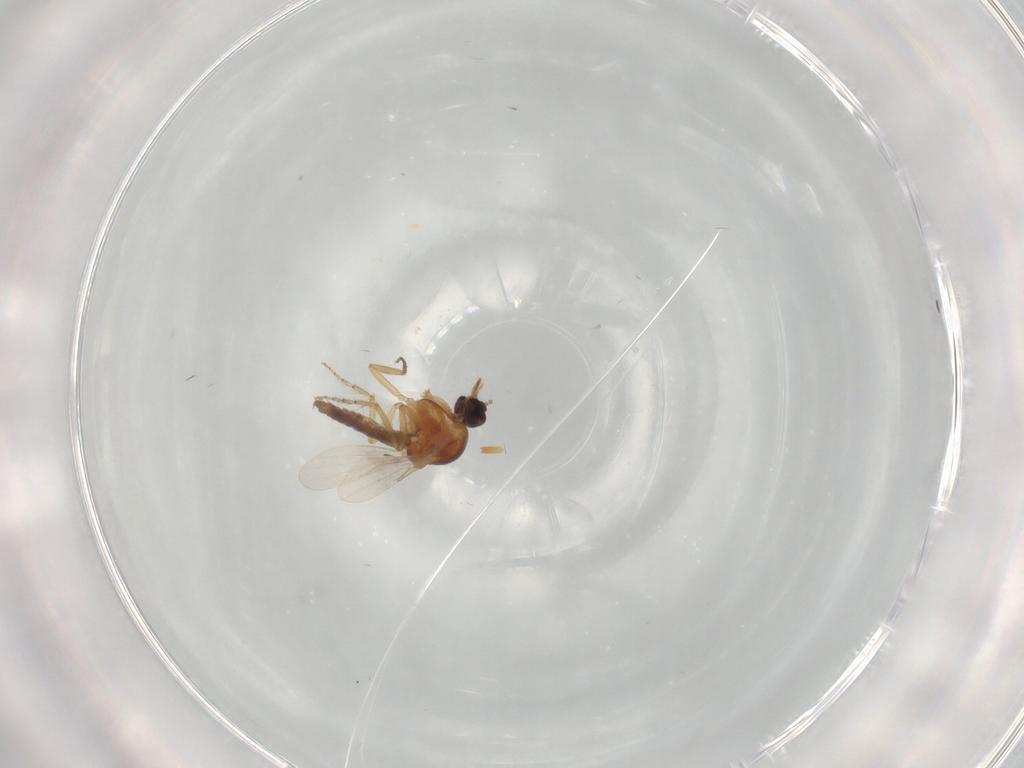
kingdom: Animalia
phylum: Arthropoda
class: Insecta
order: Diptera
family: Ceratopogonidae
